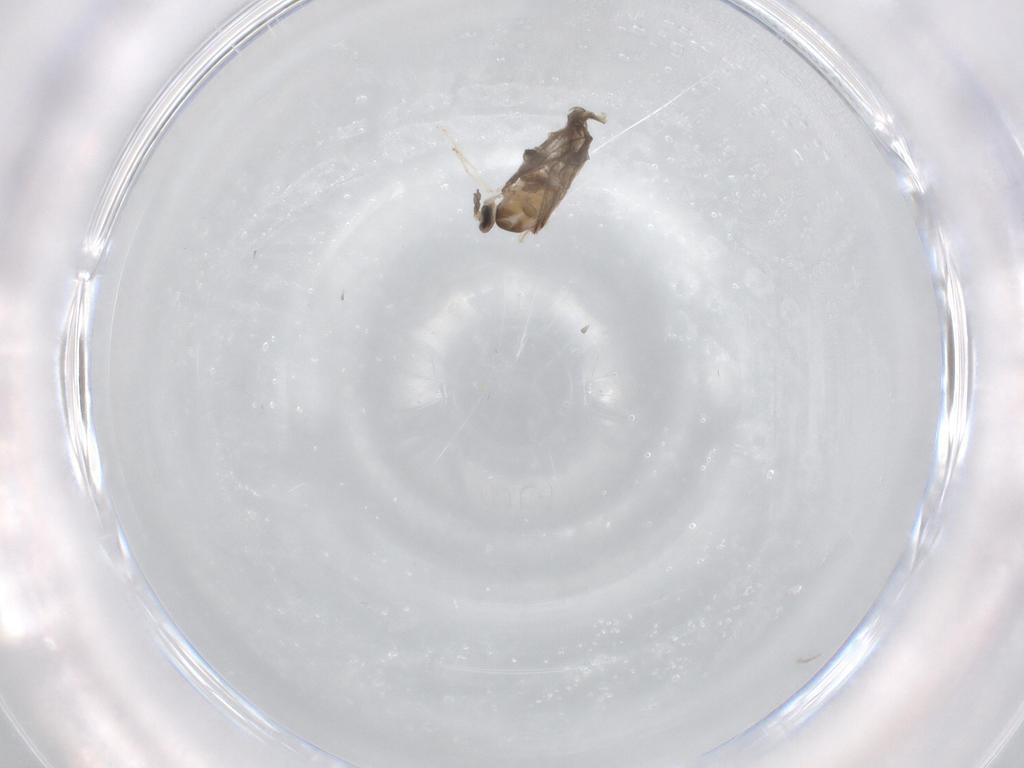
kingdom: Animalia
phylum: Arthropoda
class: Insecta
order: Diptera
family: Cecidomyiidae
